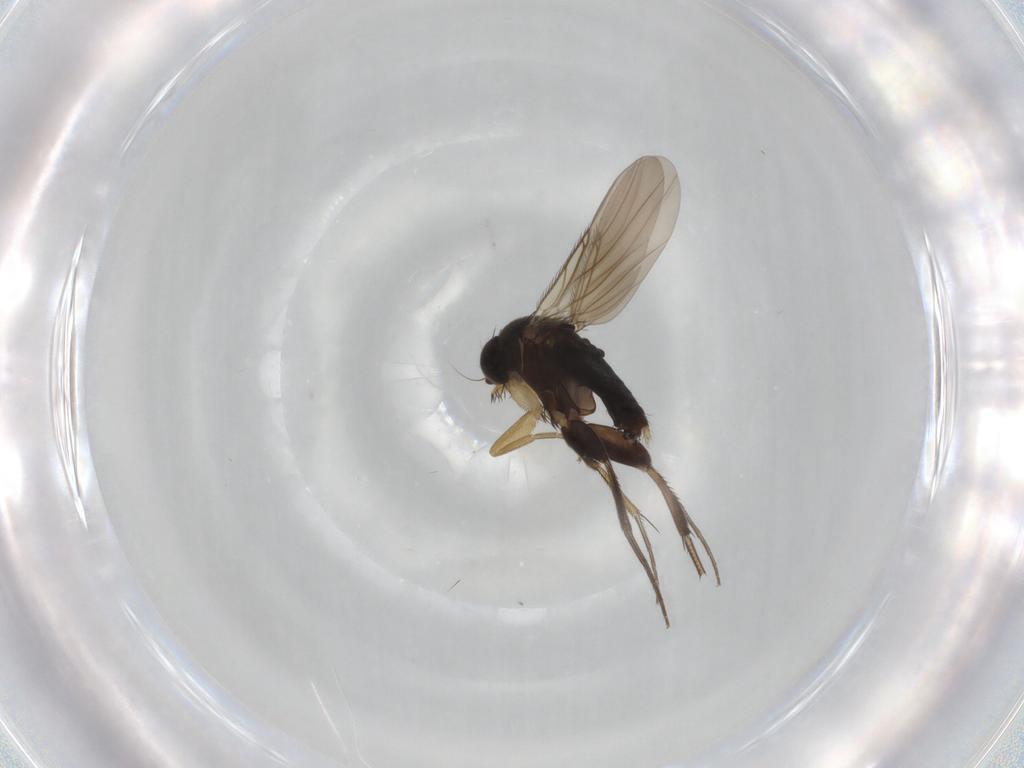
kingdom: Animalia
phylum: Arthropoda
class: Insecta
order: Diptera
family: Phoridae
